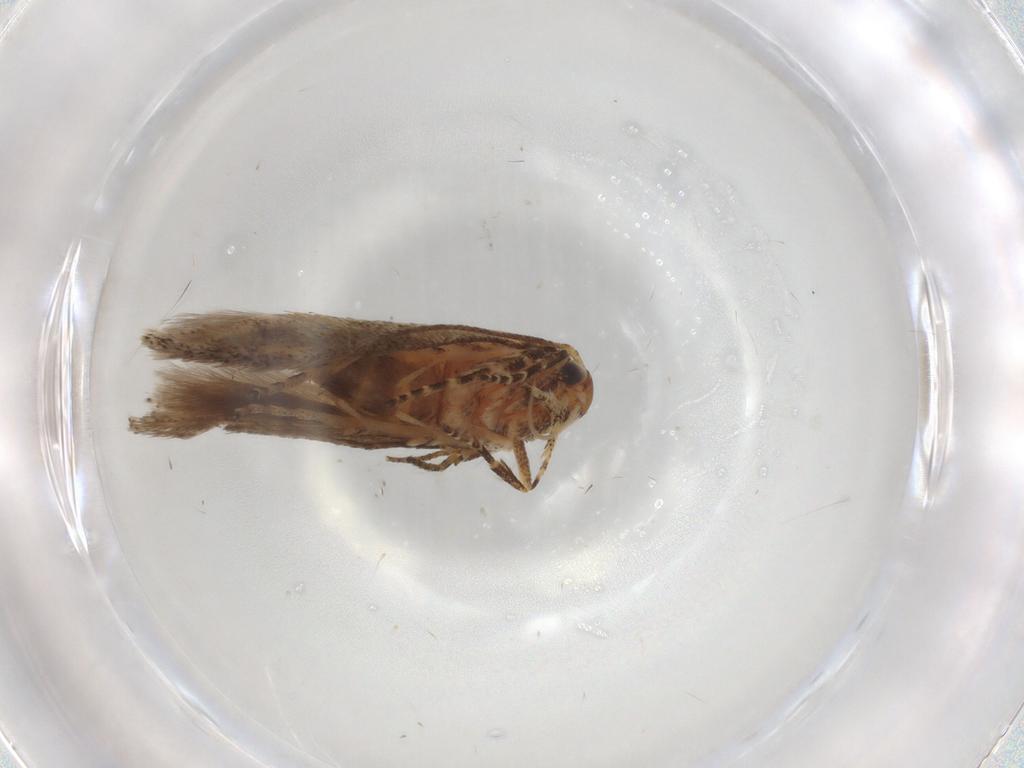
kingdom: Animalia
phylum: Arthropoda
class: Insecta
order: Lepidoptera
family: Gelechiidae
